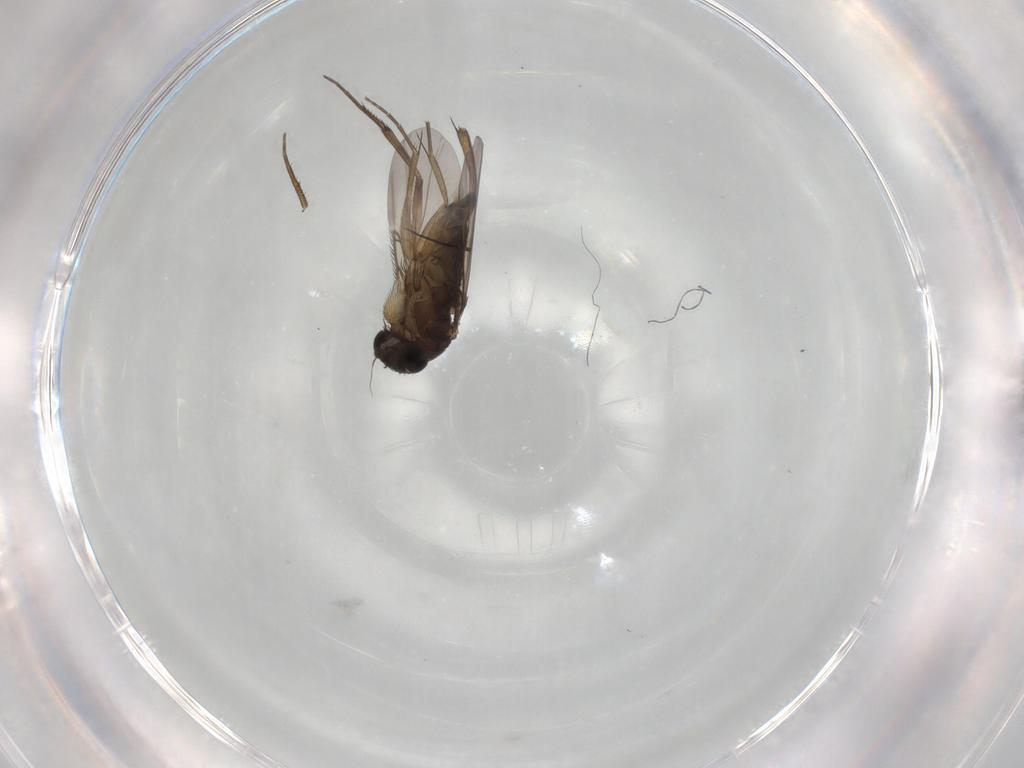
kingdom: Animalia
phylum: Arthropoda
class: Insecta
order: Diptera
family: Phoridae
